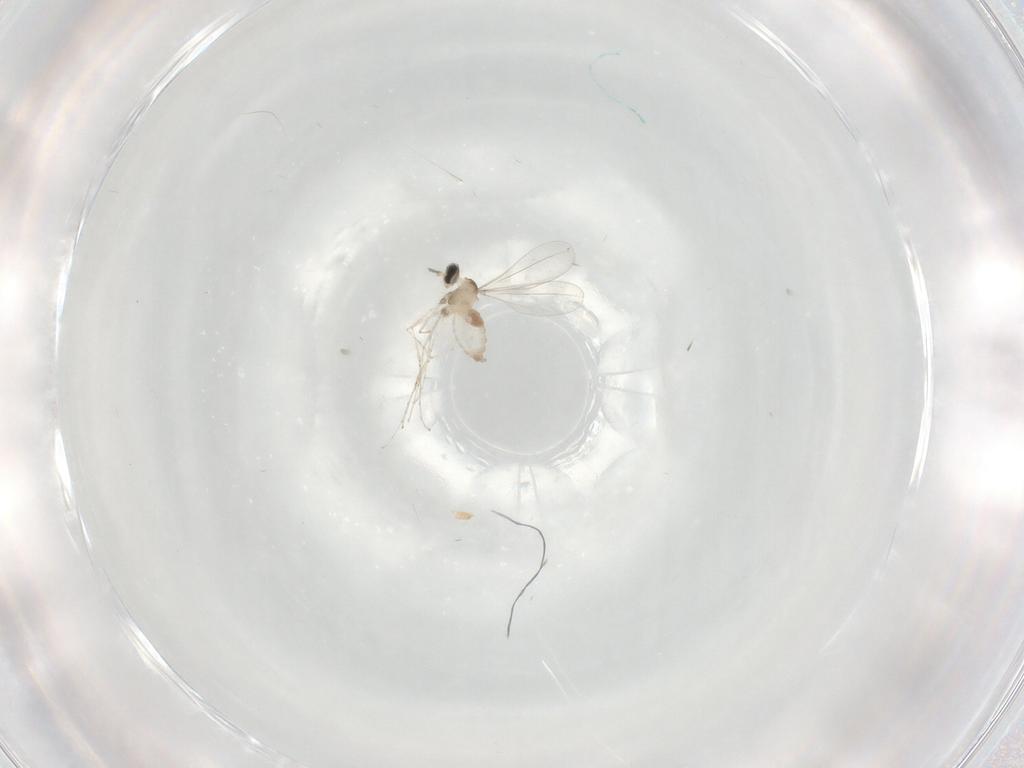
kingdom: Animalia
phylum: Arthropoda
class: Insecta
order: Diptera
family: Cecidomyiidae
